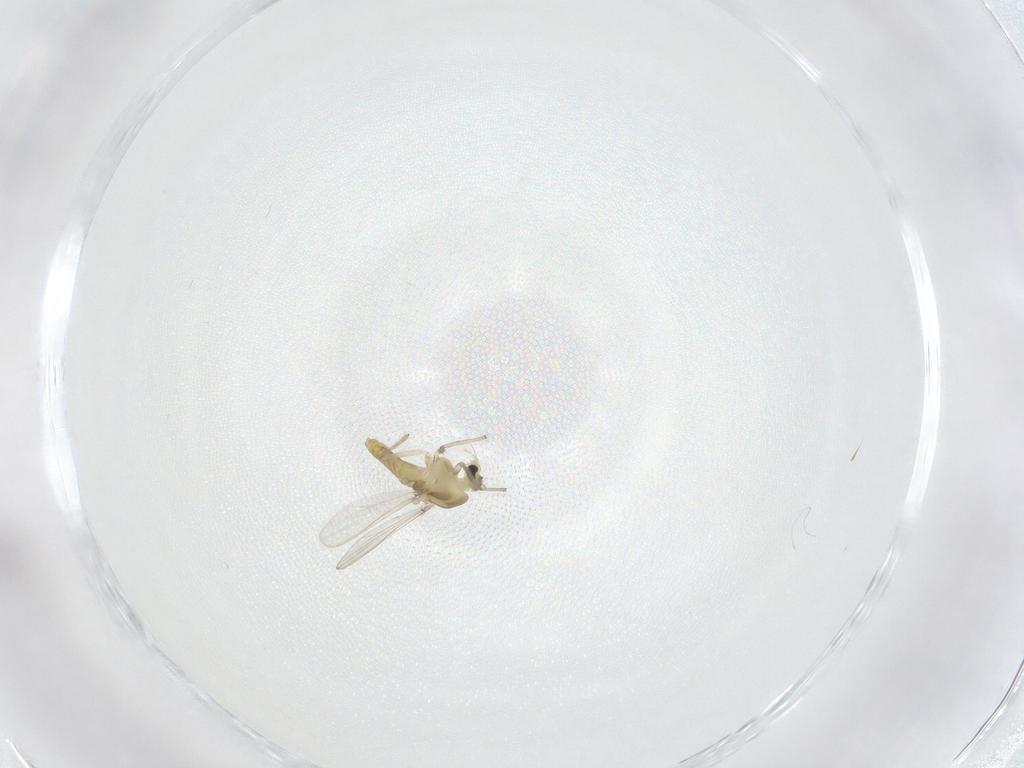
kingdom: Animalia
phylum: Arthropoda
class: Insecta
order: Diptera
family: Chironomidae
